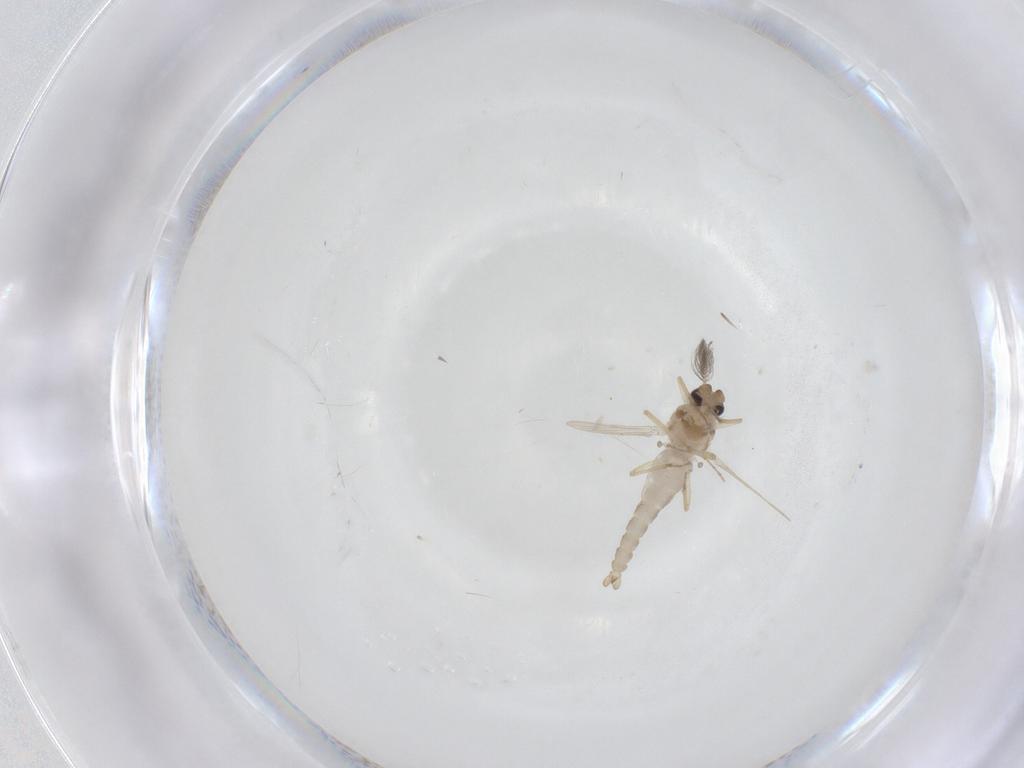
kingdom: Animalia
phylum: Arthropoda
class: Insecta
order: Diptera
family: Ceratopogonidae
